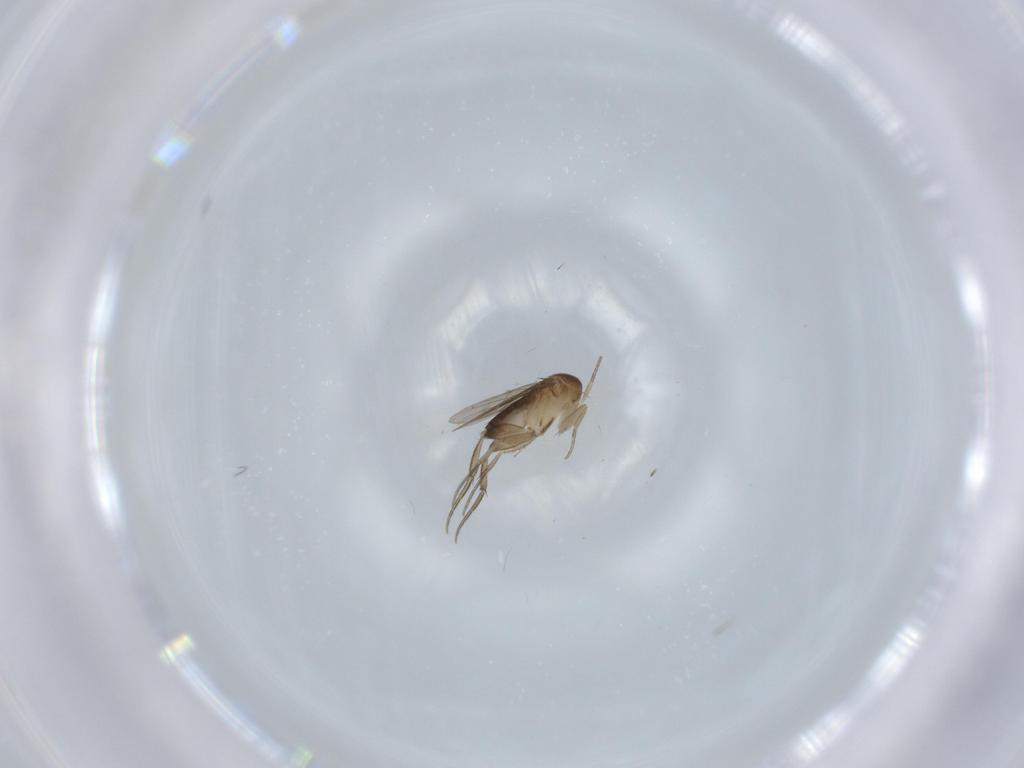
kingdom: Animalia
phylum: Arthropoda
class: Insecta
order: Diptera
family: Phoridae
